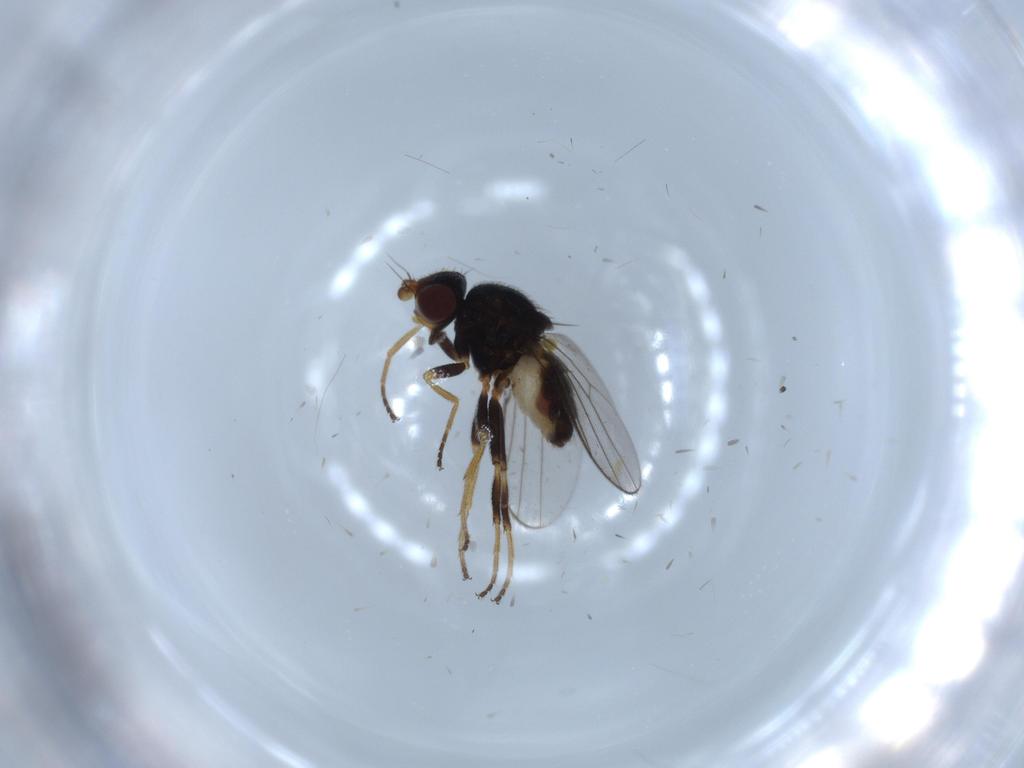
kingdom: Animalia
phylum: Arthropoda
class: Insecta
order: Diptera
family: Chloropidae
